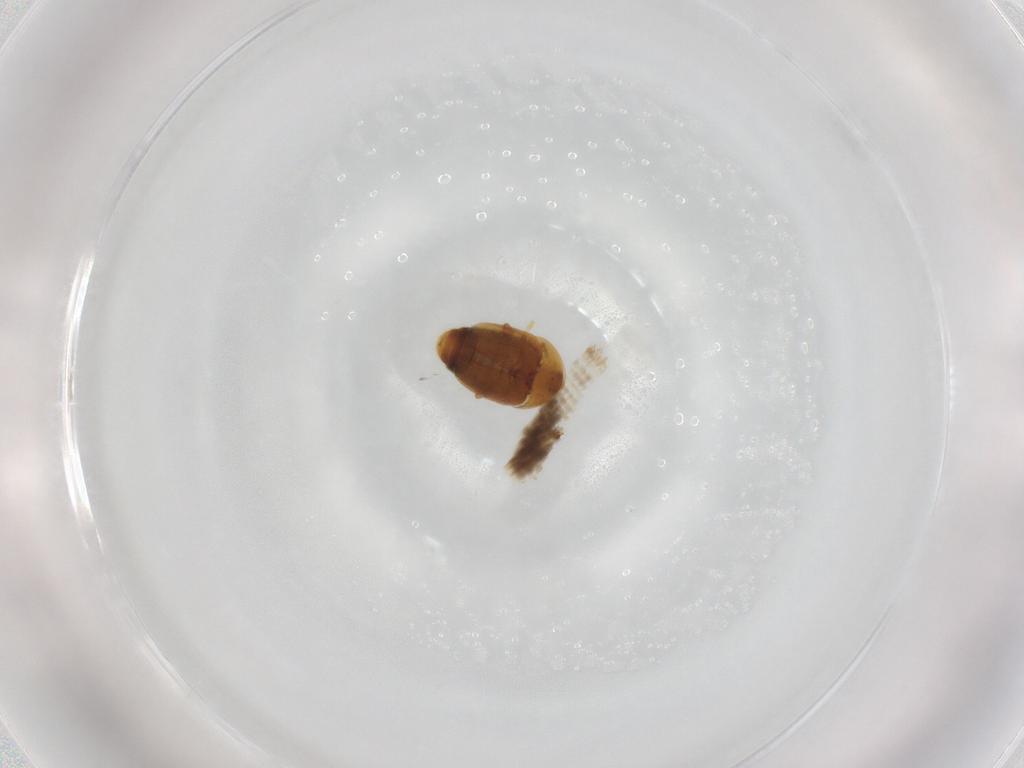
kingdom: Animalia
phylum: Arthropoda
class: Insecta
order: Coleoptera
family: Corylophidae
